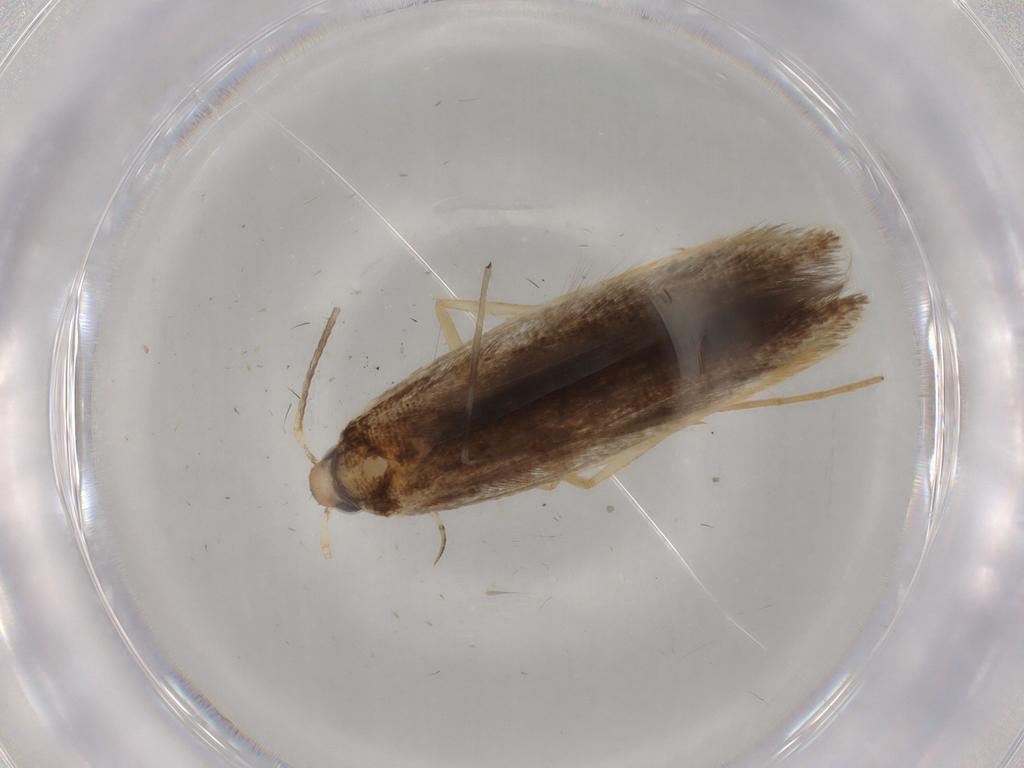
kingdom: Animalia
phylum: Arthropoda
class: Insecta
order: Lepidoptera
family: Pterolonchidae
